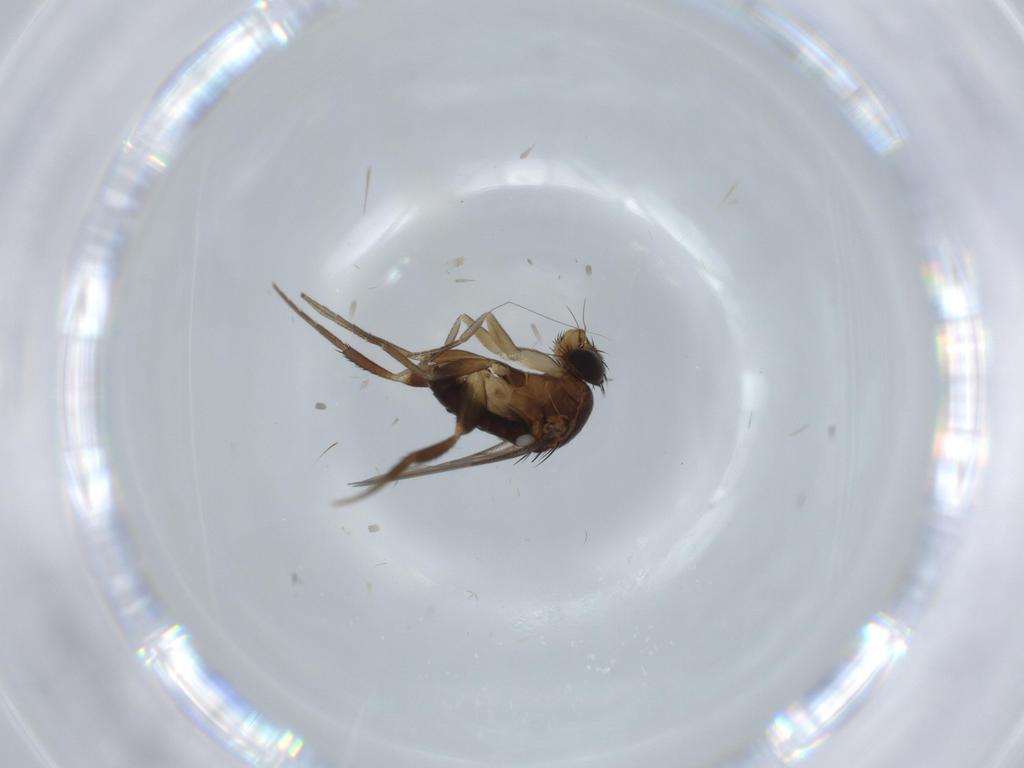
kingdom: Animalia
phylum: Arthropoda
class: Insecta
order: Diptera
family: Phoridae
